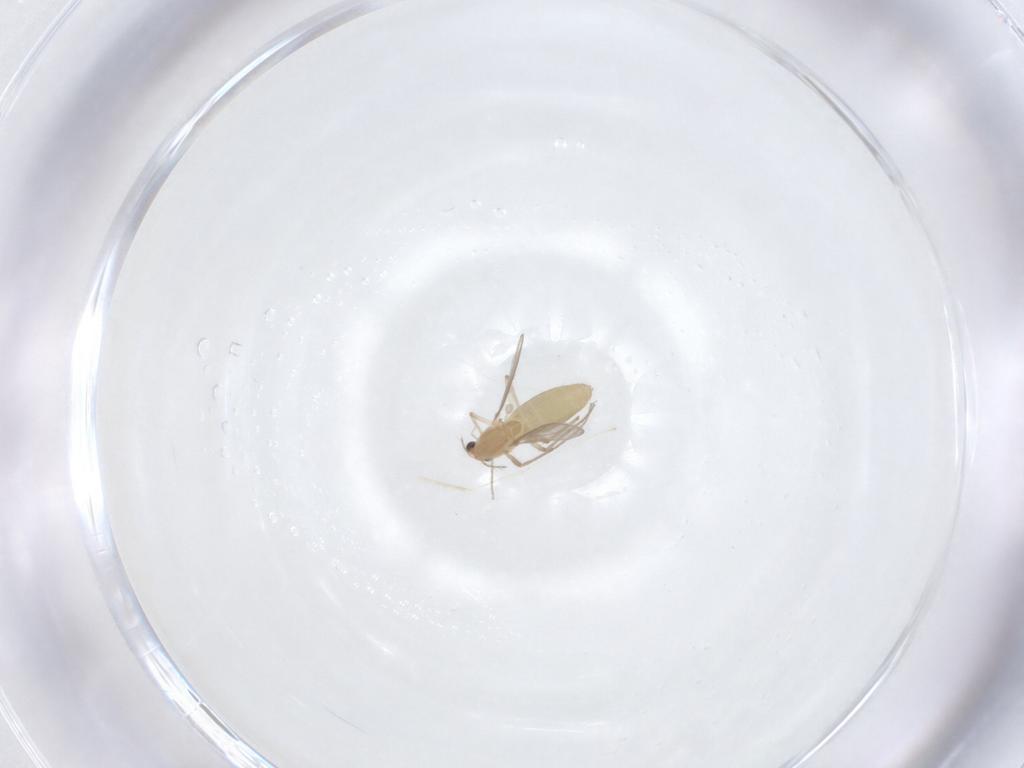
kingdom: Animalia
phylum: Arthropoda
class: Insecta
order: Diptera
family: Chironomidae
